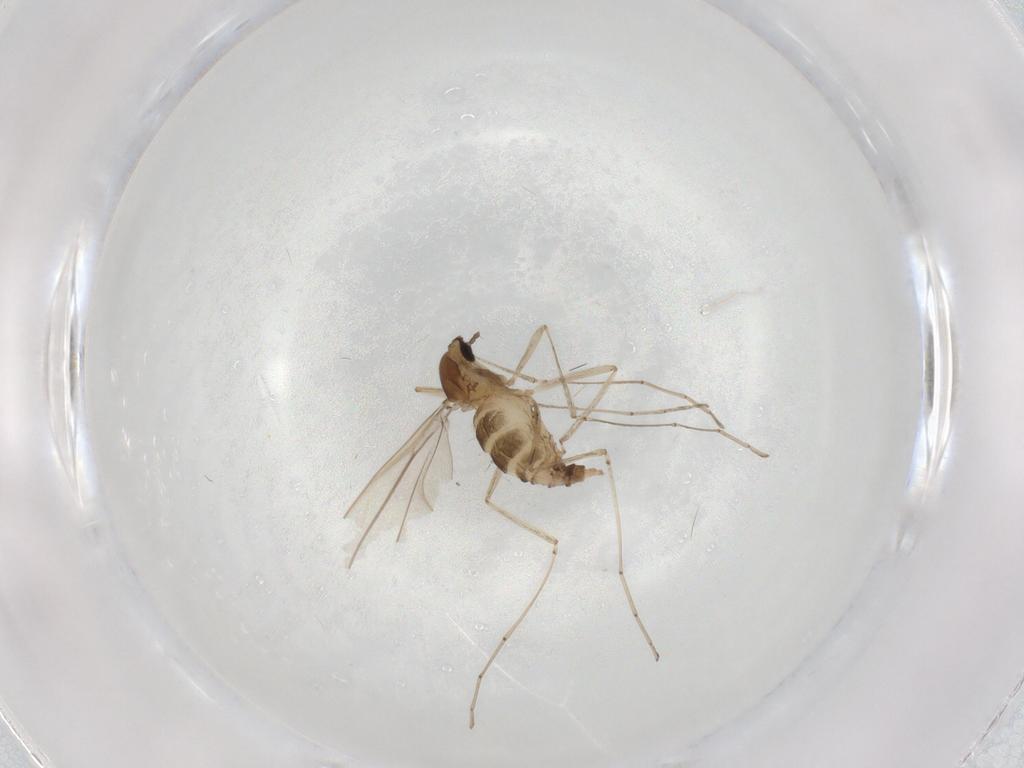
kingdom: Animalia
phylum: Arthropoda
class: Insecta
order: Diptera
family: Cecidomyiidae
